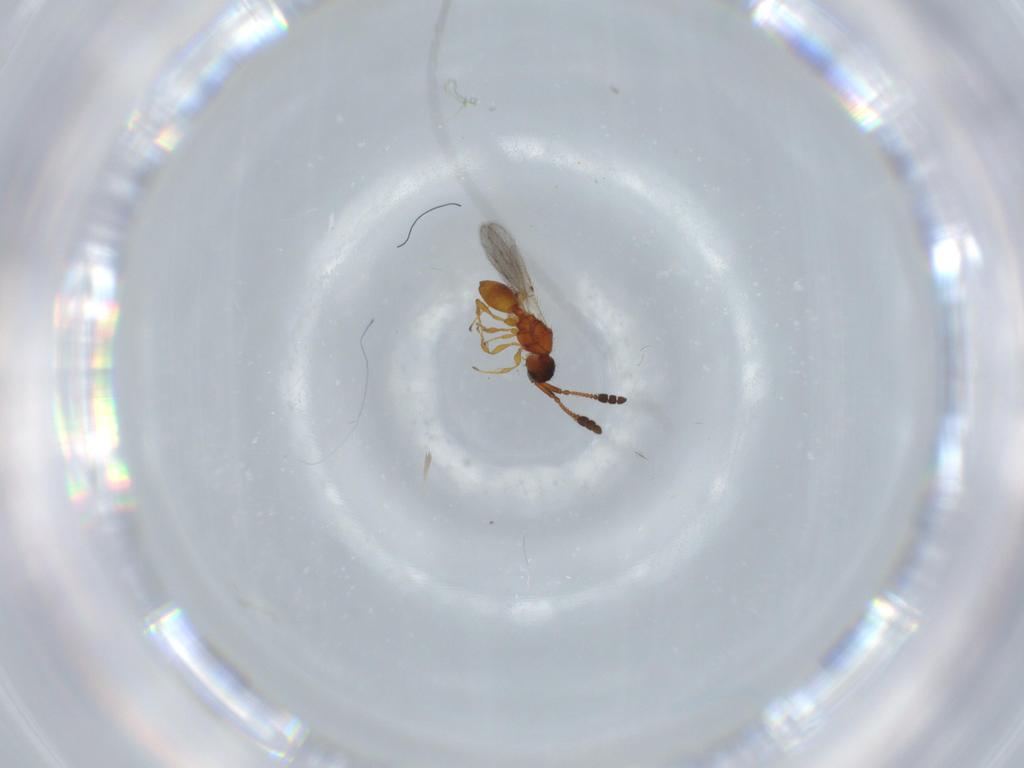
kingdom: Animalia
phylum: Arthropoda
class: Insecta
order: Hymenoptera
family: Diapriidae
